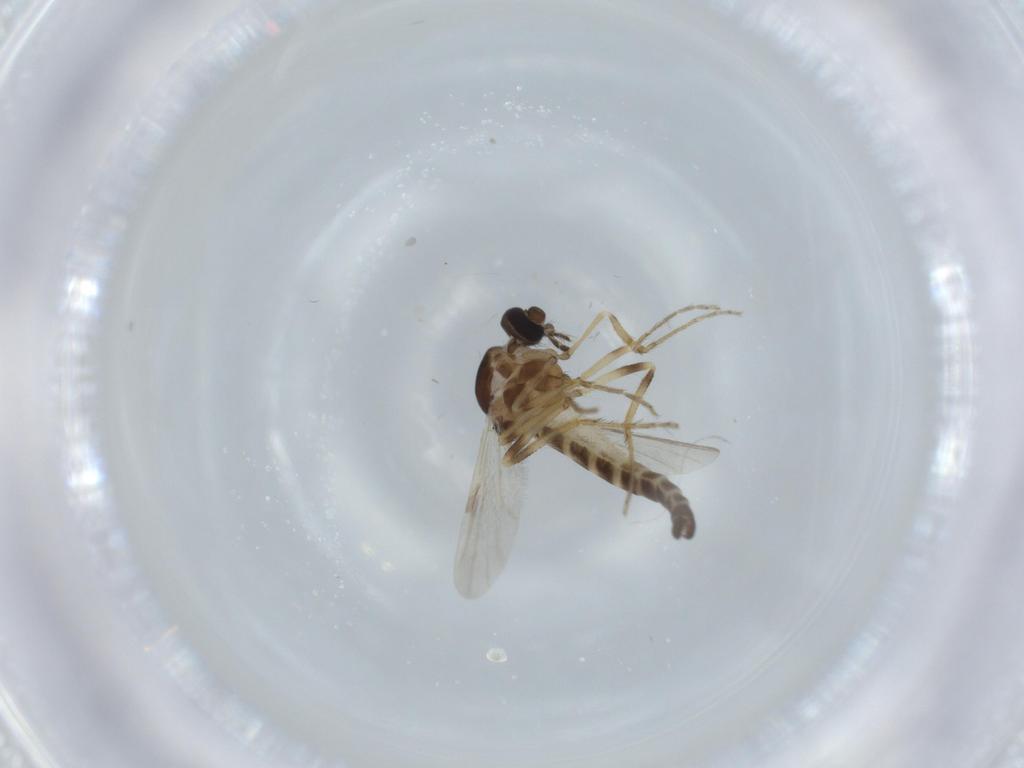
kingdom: Animalia
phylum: Arthropoda
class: Insecta
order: Diptera
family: Ceratopogonidae
